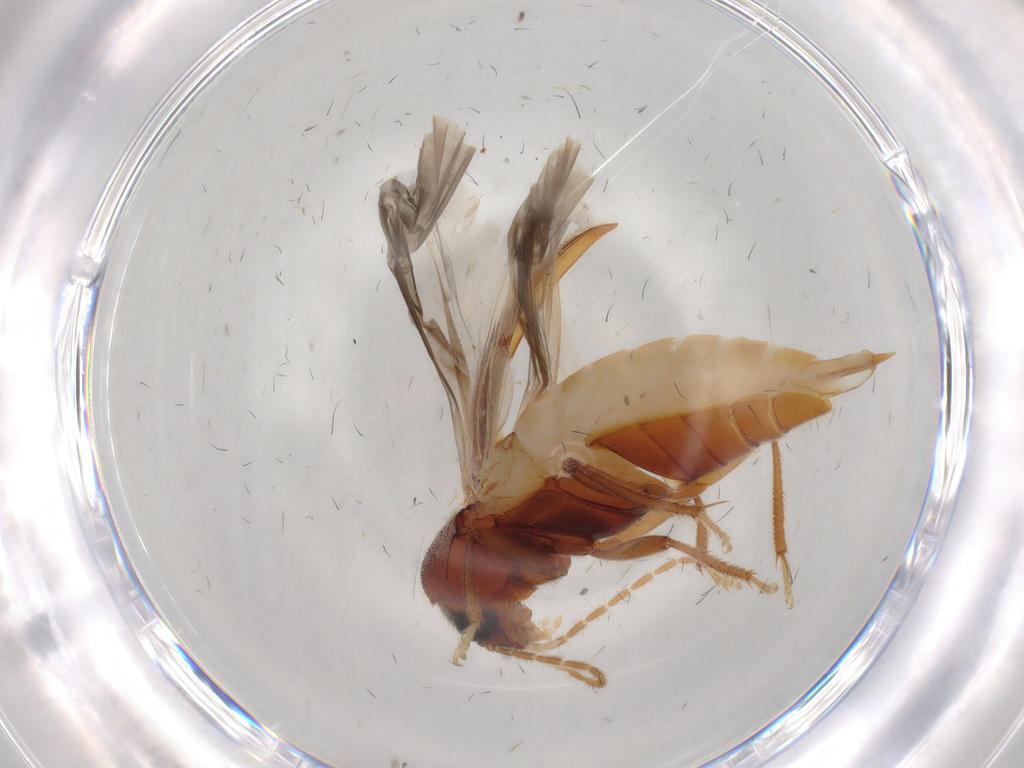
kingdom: Animalia
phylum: Arthropoda
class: Insecta
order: Coleoptera
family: Ptilodactylidae
